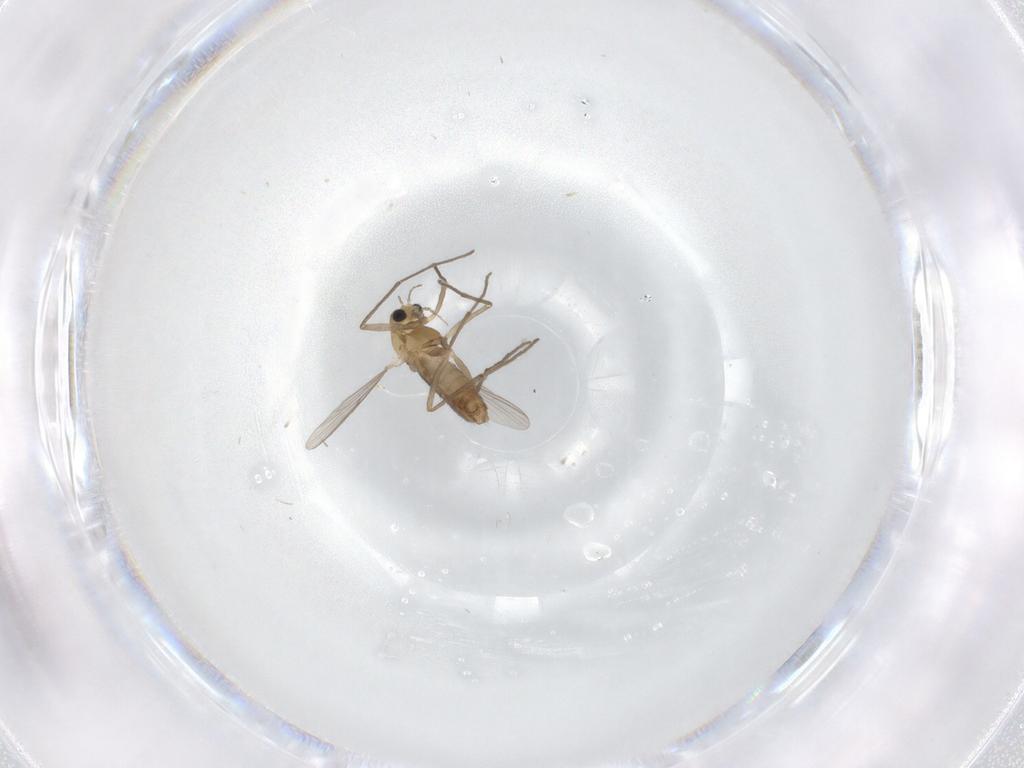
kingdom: Animalia
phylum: Arthropoda
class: Insecta
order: Diptera
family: Chironomidae
